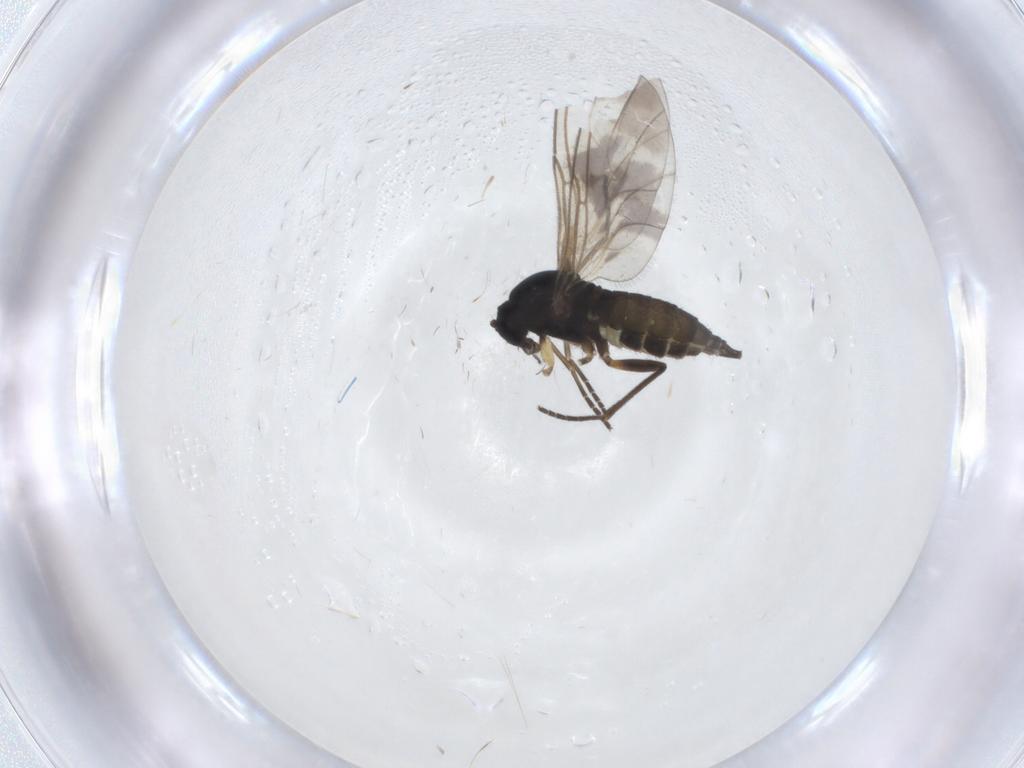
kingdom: Animalia
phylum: Arthropoda
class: Insecta
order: Diptera
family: Sciaridae
